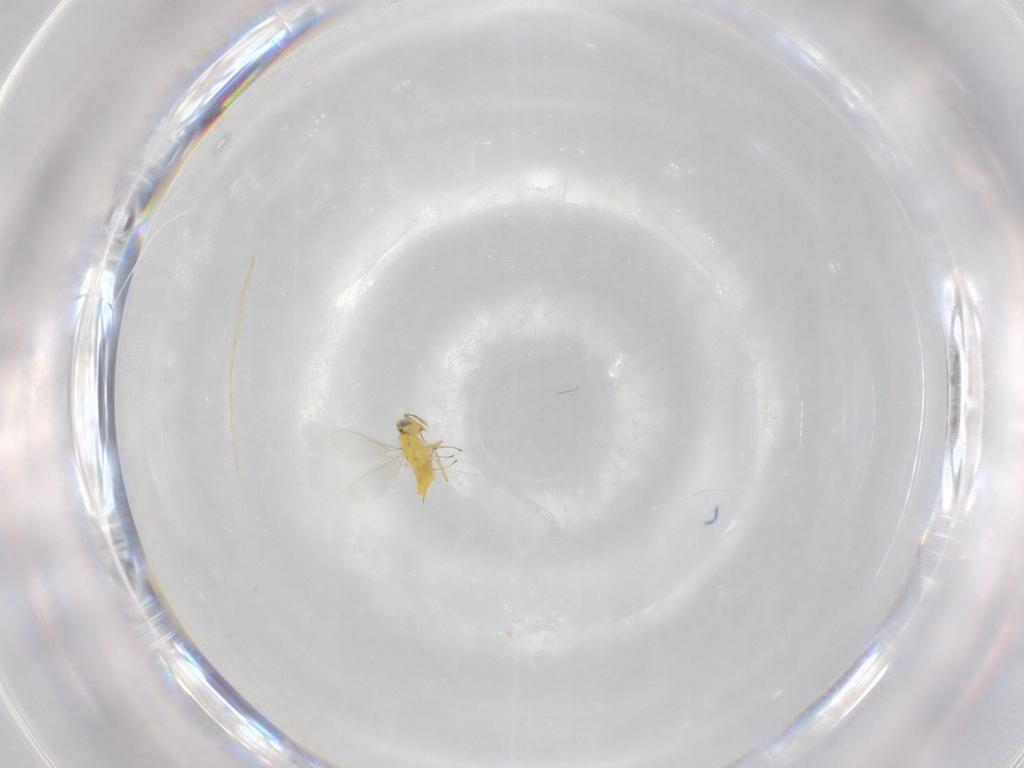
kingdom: Animalia
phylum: Arthropoda
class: Insecta
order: Hymenoptera
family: Aphelinidae
